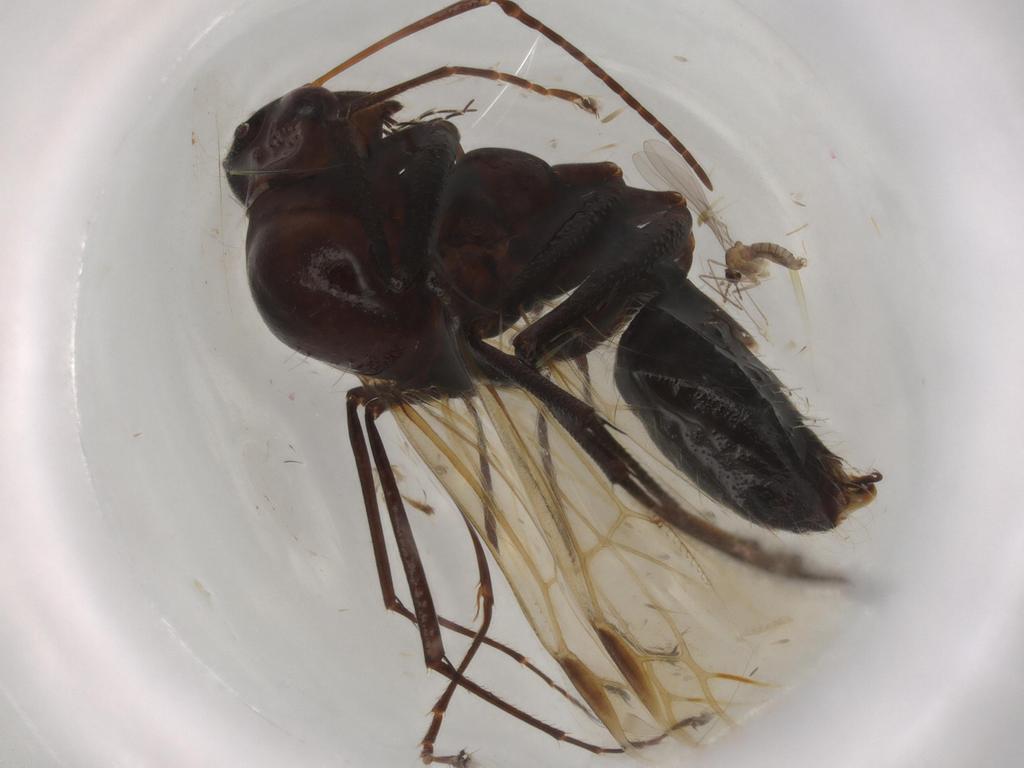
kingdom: Animalia
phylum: Arthropoda
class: Insecta
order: Hymenoptera
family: Formicidae
